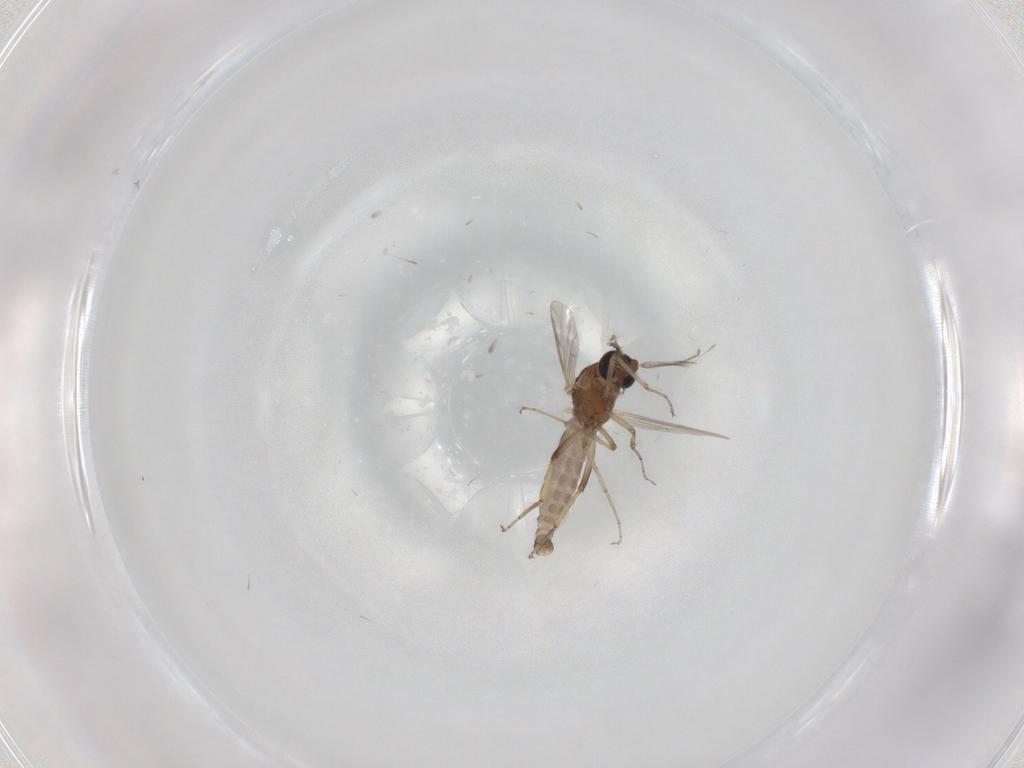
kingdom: Animalia
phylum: Arthropoda
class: Insecta
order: Diptera
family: Ceratopogonidae
